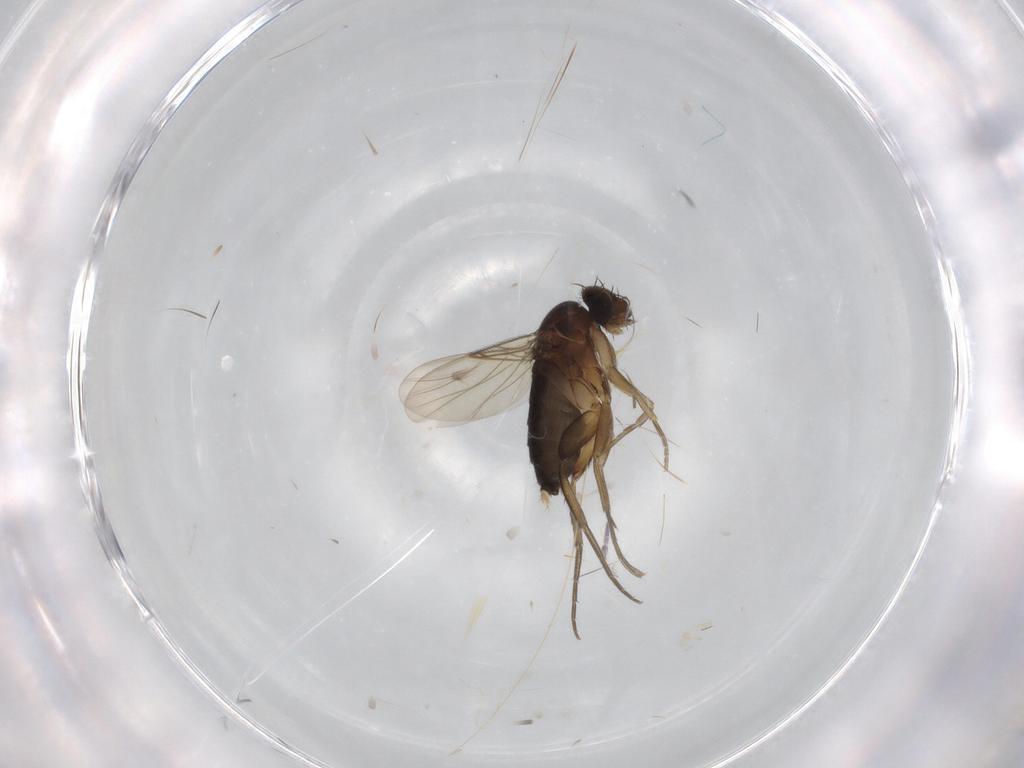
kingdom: Animalia
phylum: Arthropoda
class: Insecta
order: Diptera
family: Phoridae
